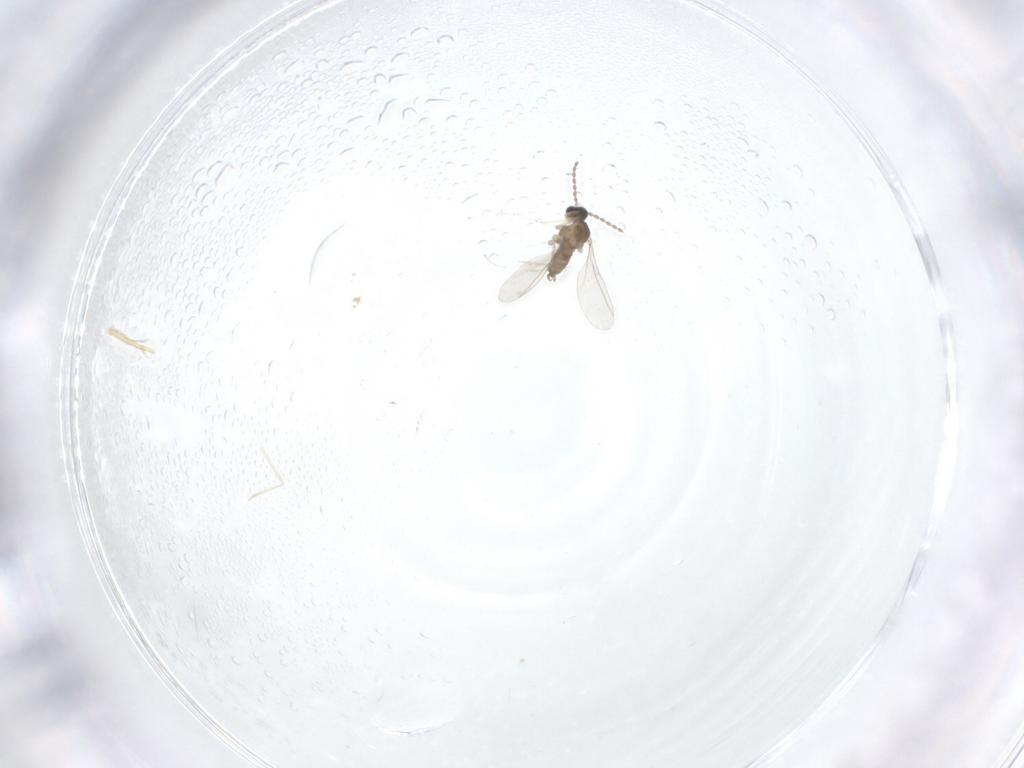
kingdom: Animalia
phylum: Arthropoda
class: Insecta
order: Diptera
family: Cecidomyiidae
